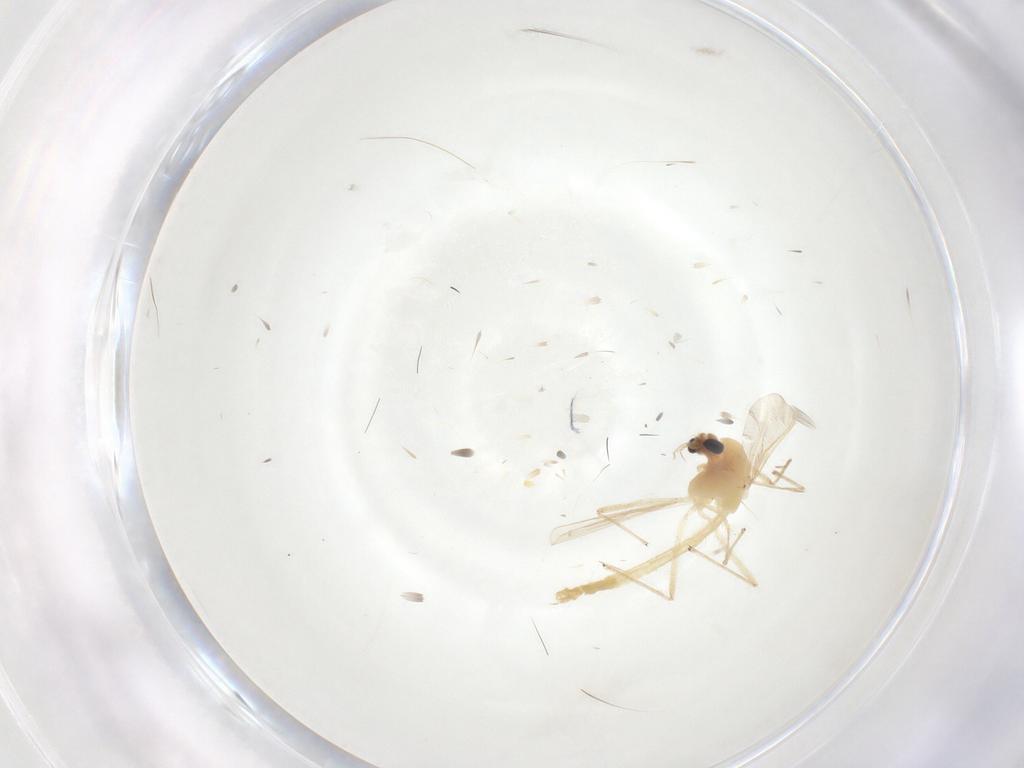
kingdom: Animalia
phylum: Arthropoda
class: Insecta
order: Diptera
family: Chironomidae
